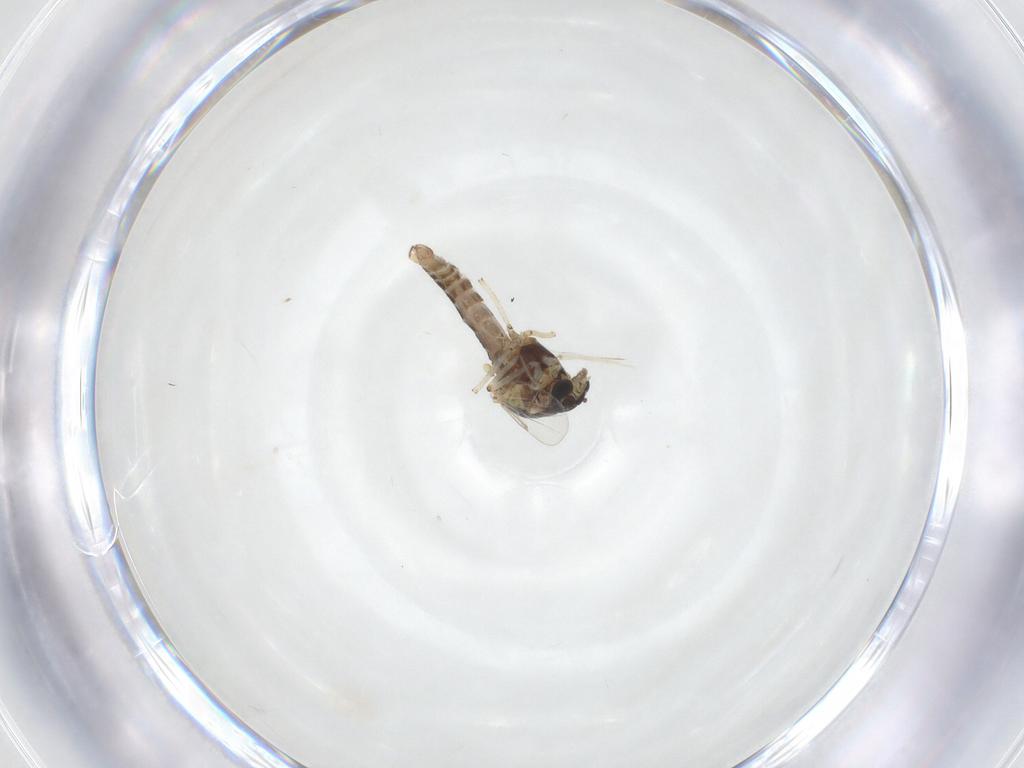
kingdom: Animalia
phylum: Arthropoda
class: Insecta
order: Diptera
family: Ceratopogonidae
